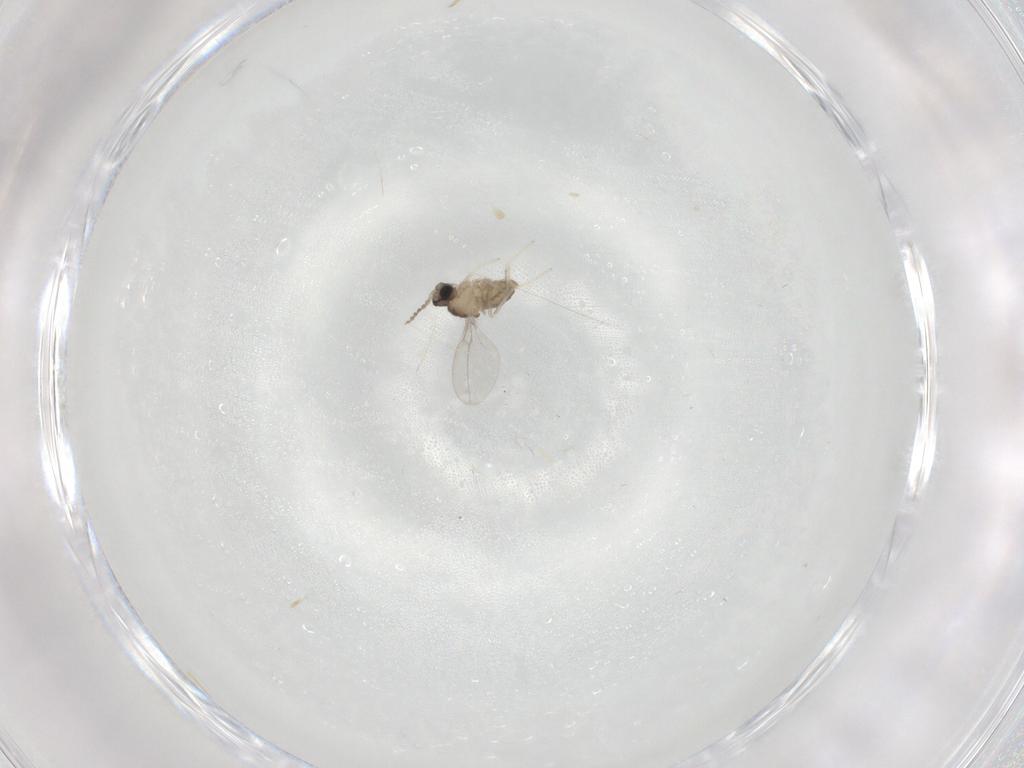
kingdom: Animalia
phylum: Arthropoda
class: Insecta
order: Diptera
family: Cecidomyiidae
